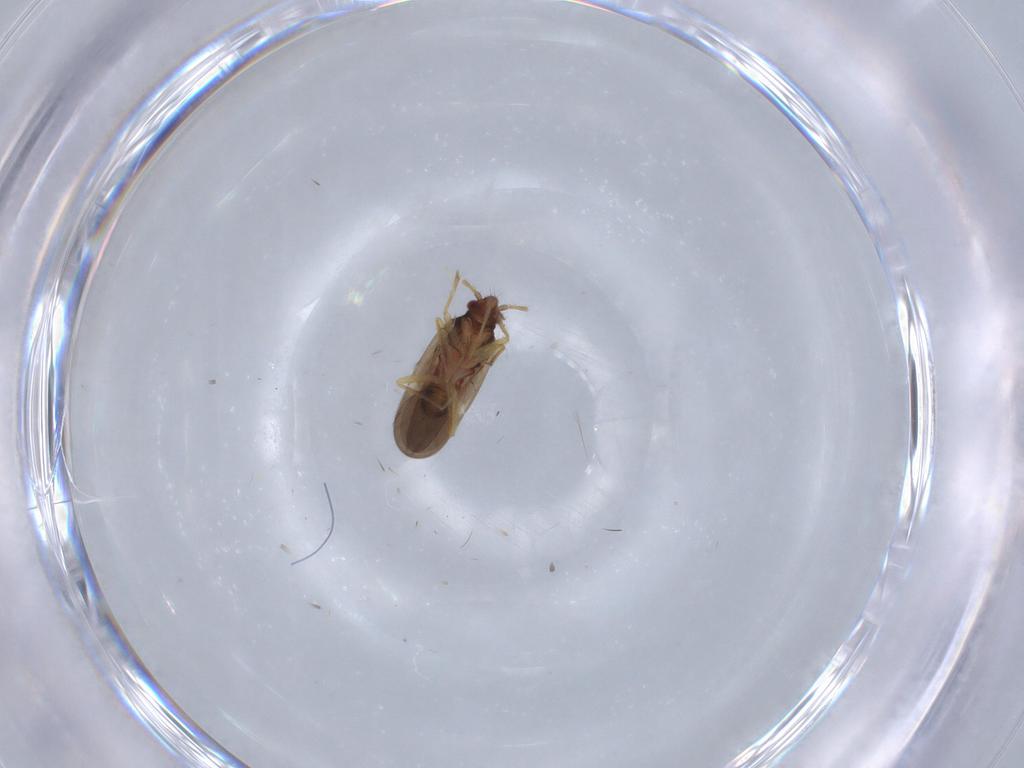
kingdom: Animalia
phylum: Arthropoda
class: Insecta
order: Hemiptera
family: Ceratocombidae
